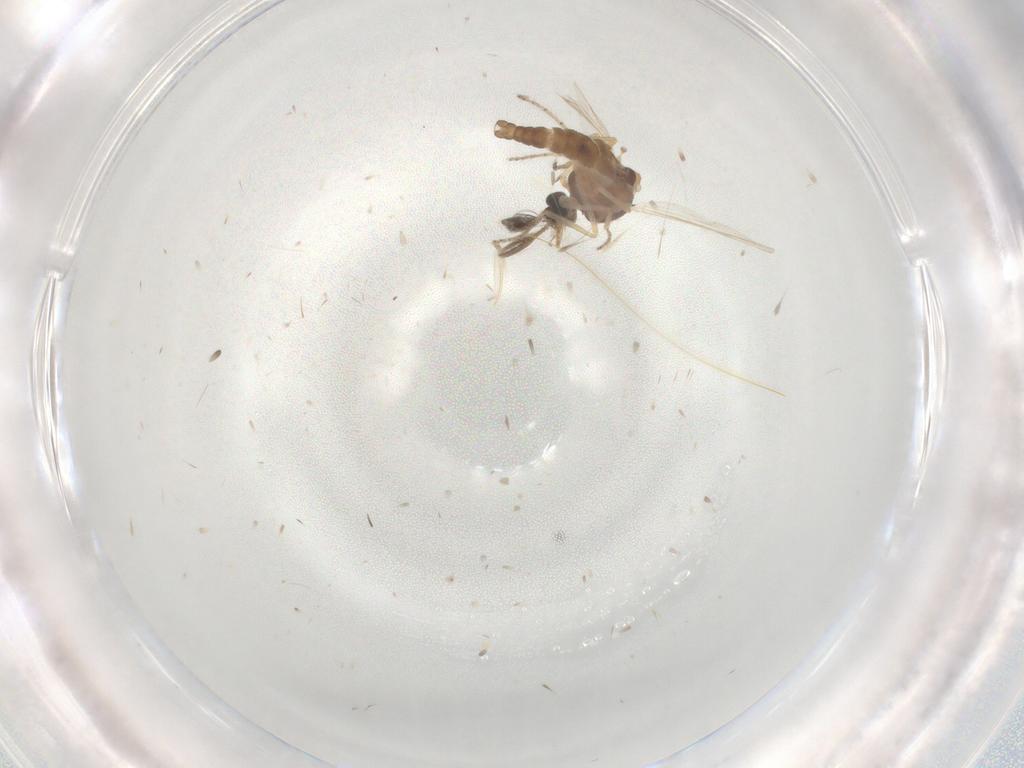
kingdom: Animalia
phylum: Arthropoda
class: Insecta
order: Diptera
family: Ceratopogonidae
